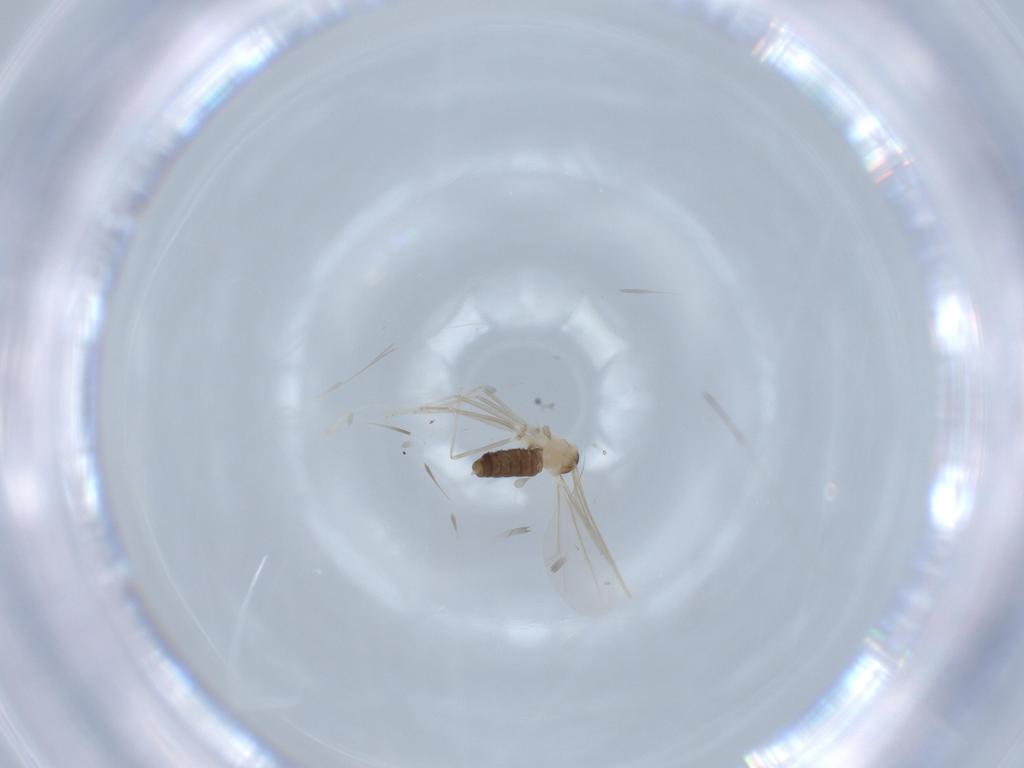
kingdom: Animalia
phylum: Arthropoda
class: Insecta
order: Diptera
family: Cecidomyiidae
